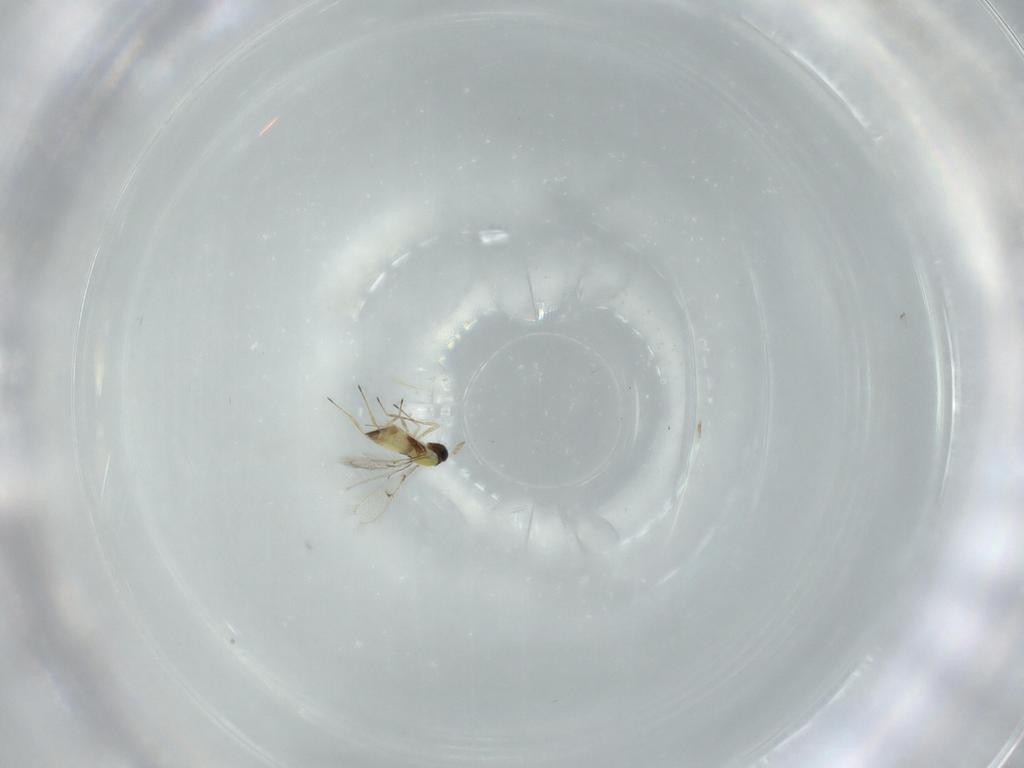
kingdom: Animalia
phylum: Arthropoda
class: Insecta
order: Hymenoptera
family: Trichogrammatidae
